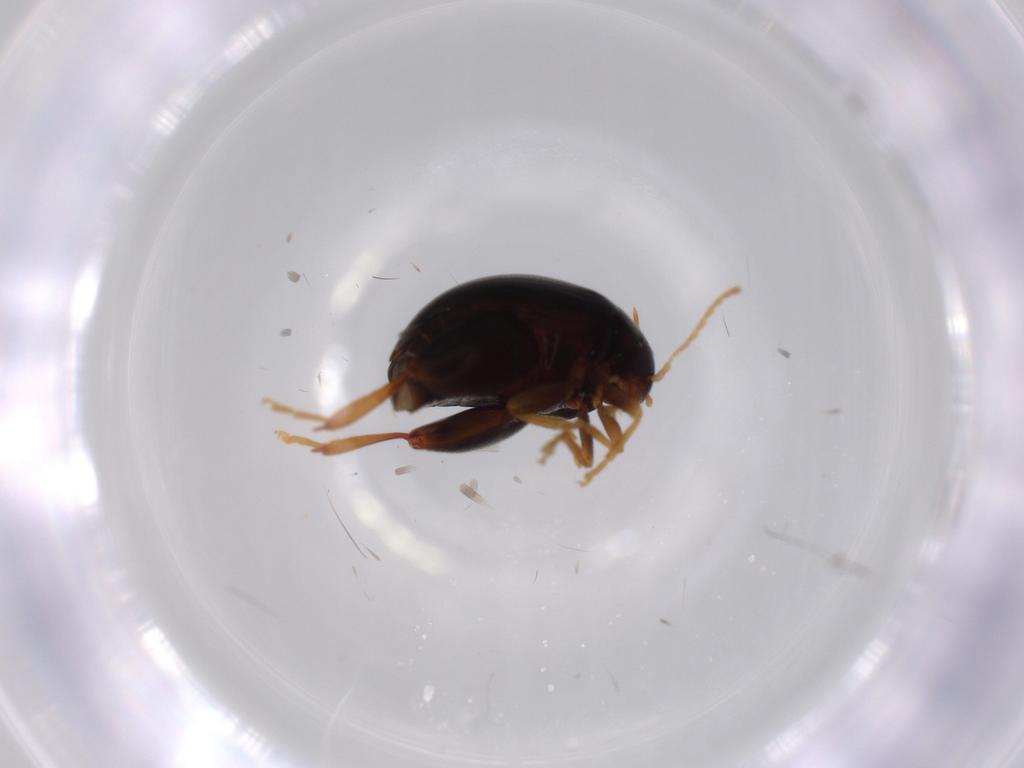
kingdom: Animalia
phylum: Arthropoda
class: Insecta
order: Coleoptera
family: Chrysomelidae
